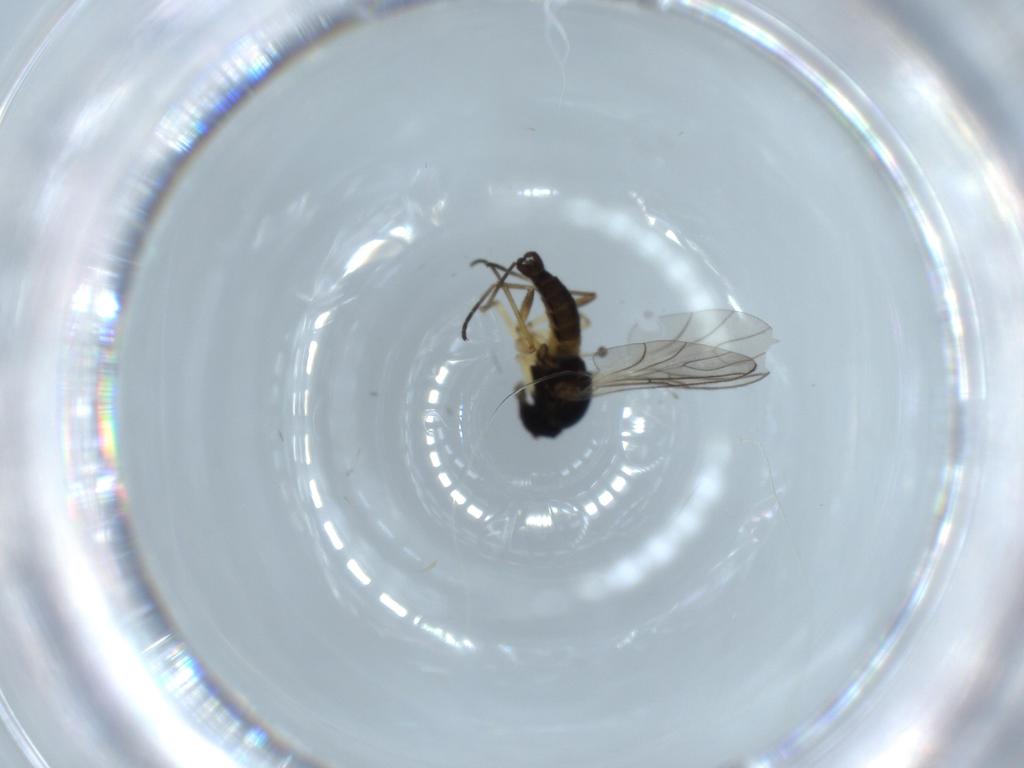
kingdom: Animalia
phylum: Arthropoda
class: Insecta
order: Diptera
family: Sciaridae
